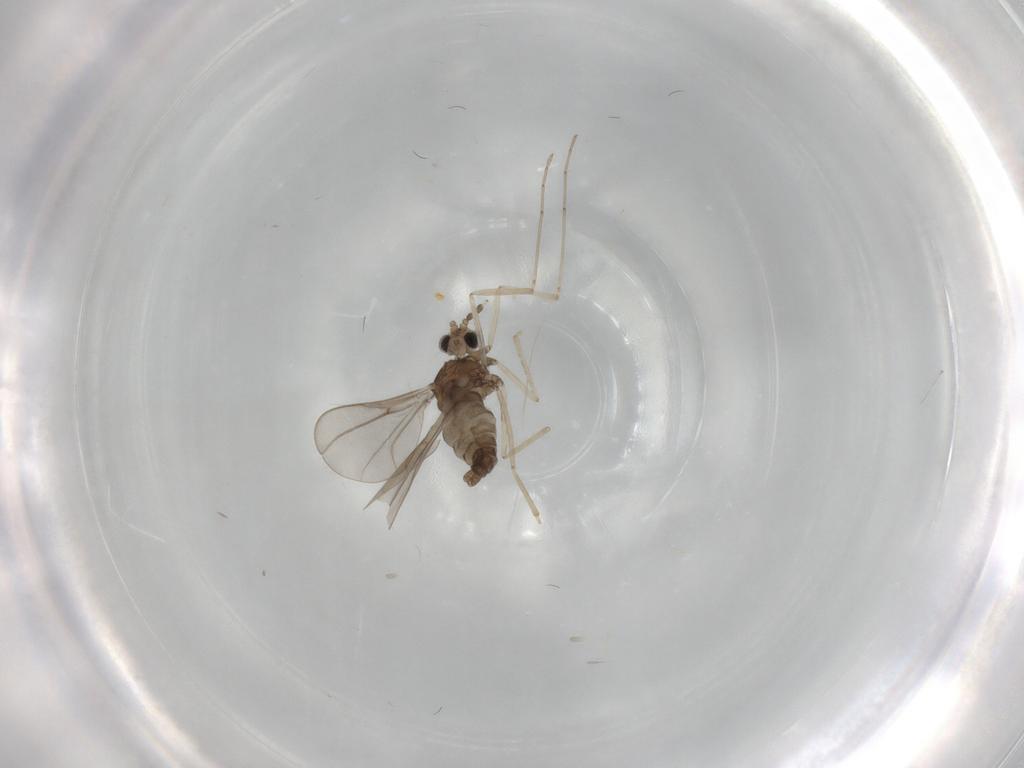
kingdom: Animalia
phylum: Arthropoda
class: Insecta
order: Diptera
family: Cecidomyiidae
